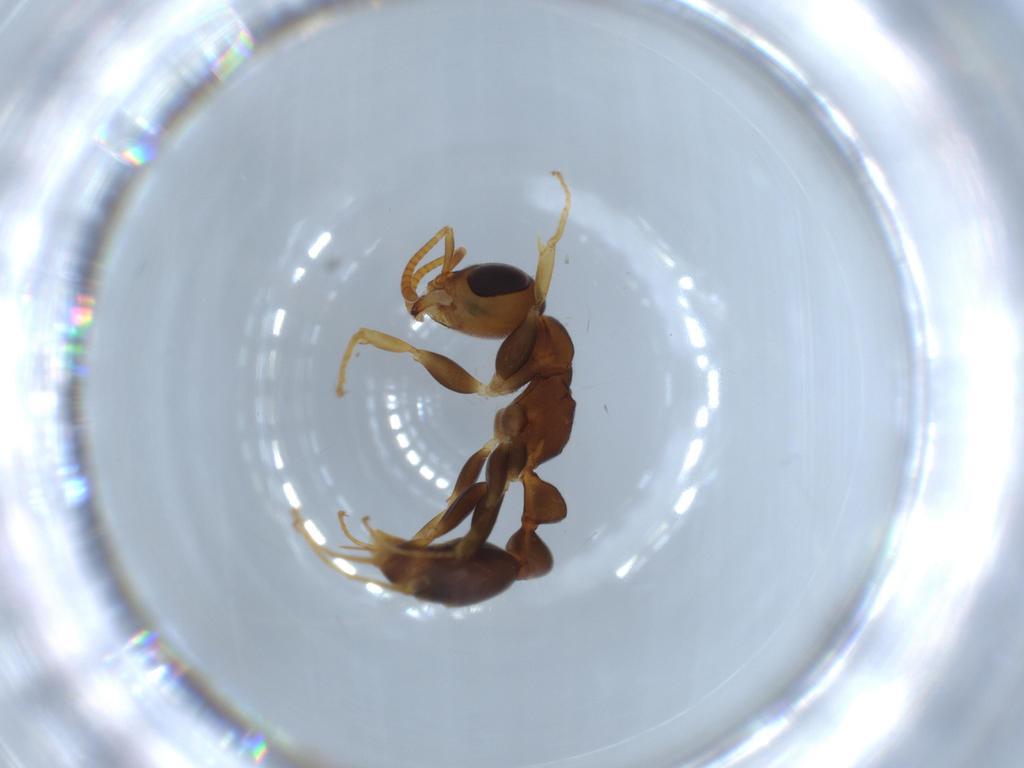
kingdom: Animalia
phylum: Arthropoda
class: Insecta
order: Hymenoptera
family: Formicidae
